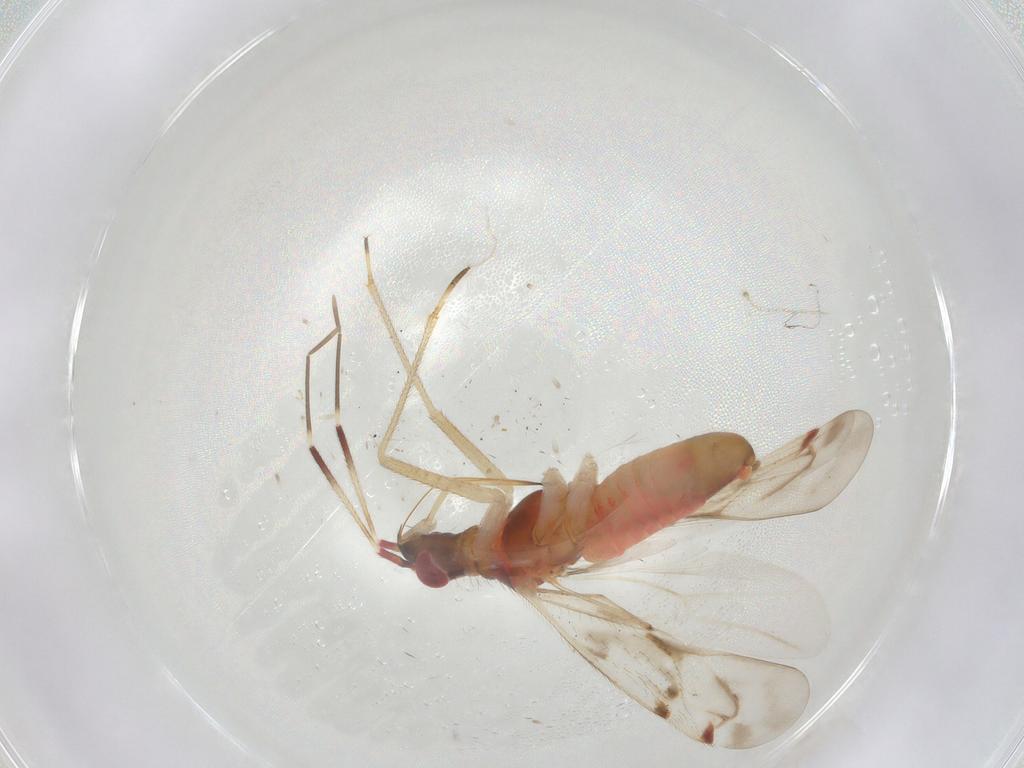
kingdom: Animalia
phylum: Arthropoda
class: Insecta
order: Hemiptera
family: Miridae
